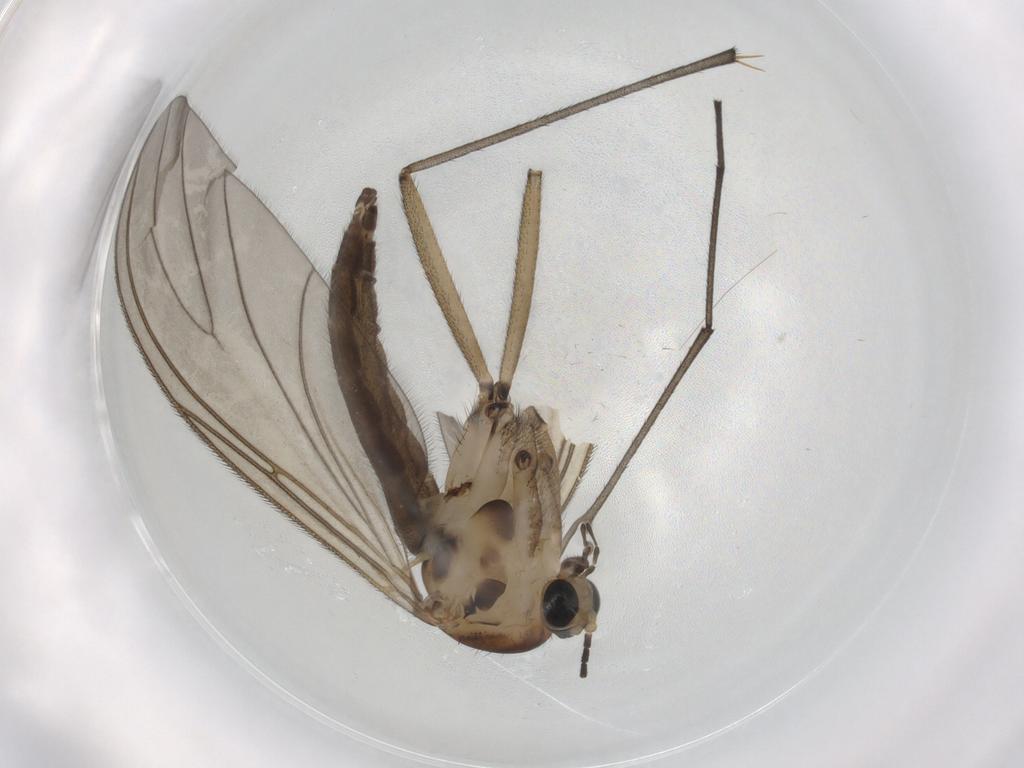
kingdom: Animalia
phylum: Arthropoda
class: Insecta
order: Diptera
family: Sciaridae
